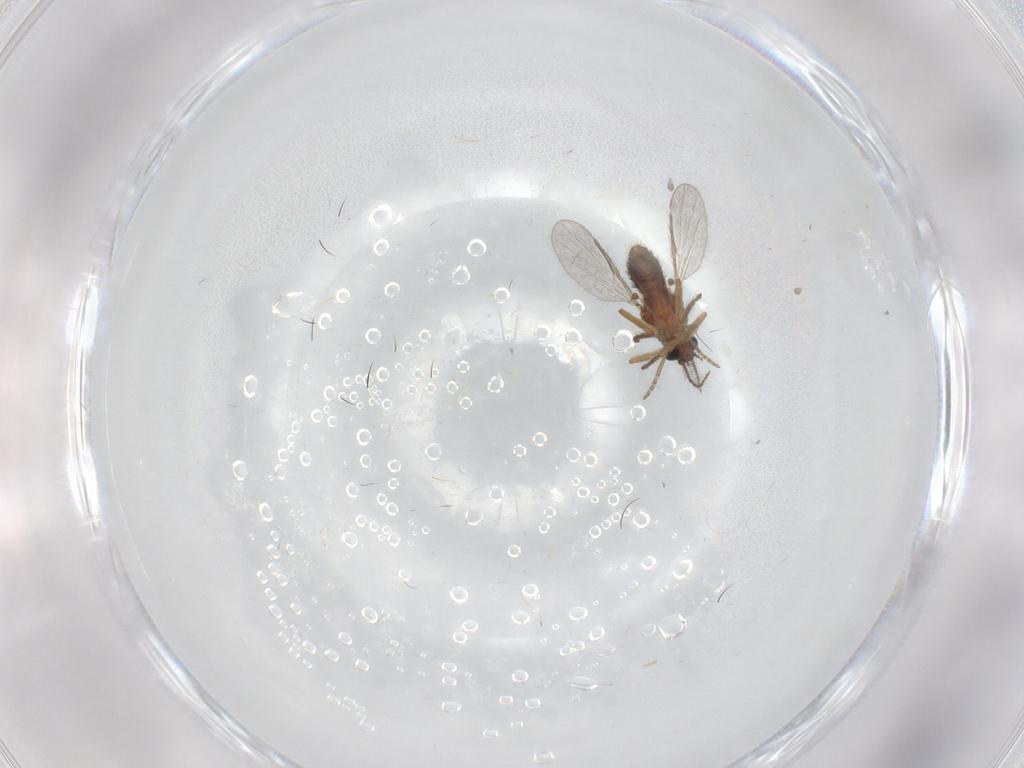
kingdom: Animalia
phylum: Arthropoda
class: Insecta
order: Diptera
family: Ceratopogonidae
